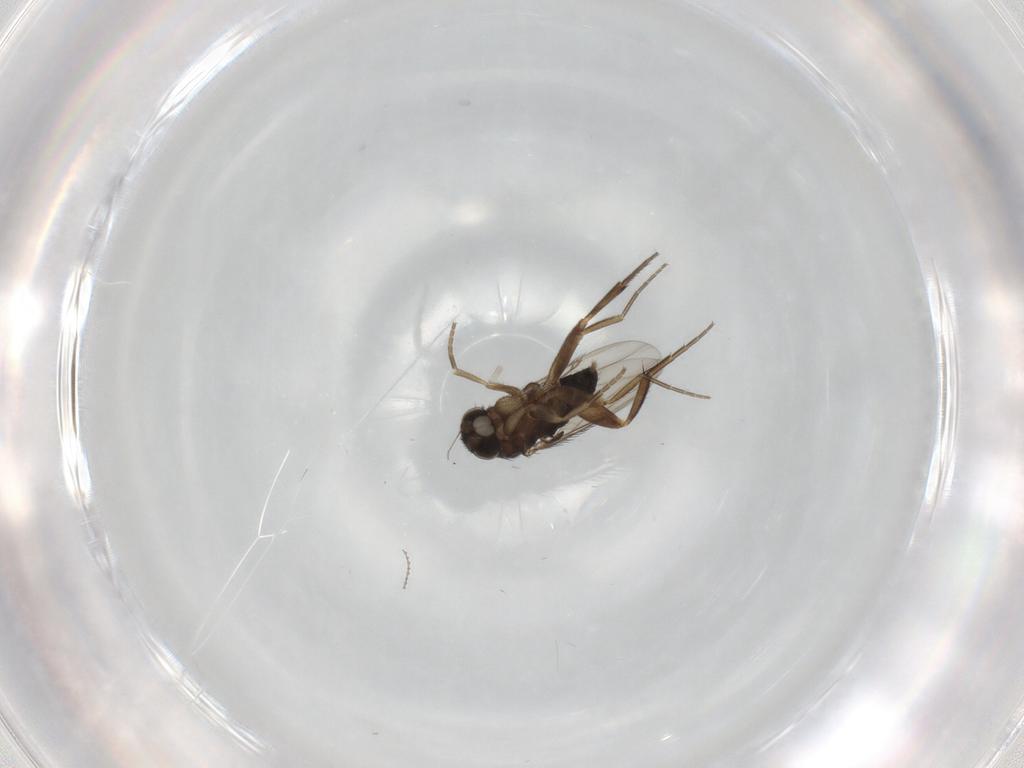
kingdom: Animalia
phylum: Arthropoda
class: Insecta
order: Diptera
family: Phoridae
